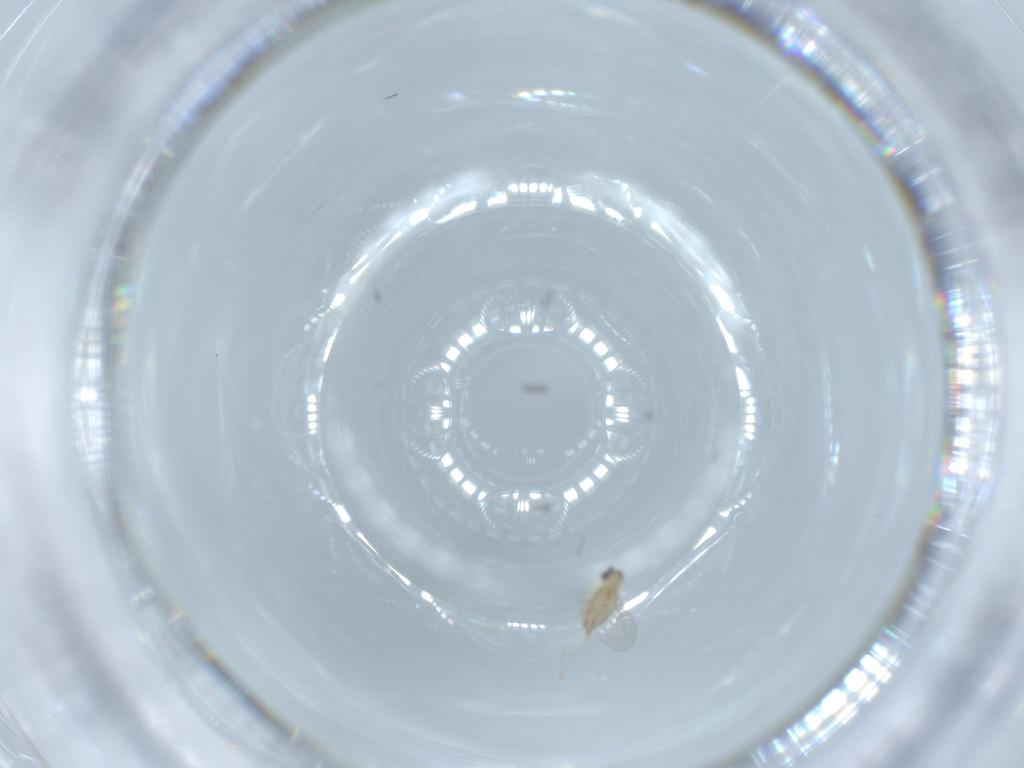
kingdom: Animalia
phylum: Arthropoda
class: Insecta
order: Diptera
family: Cecidomyiidae
